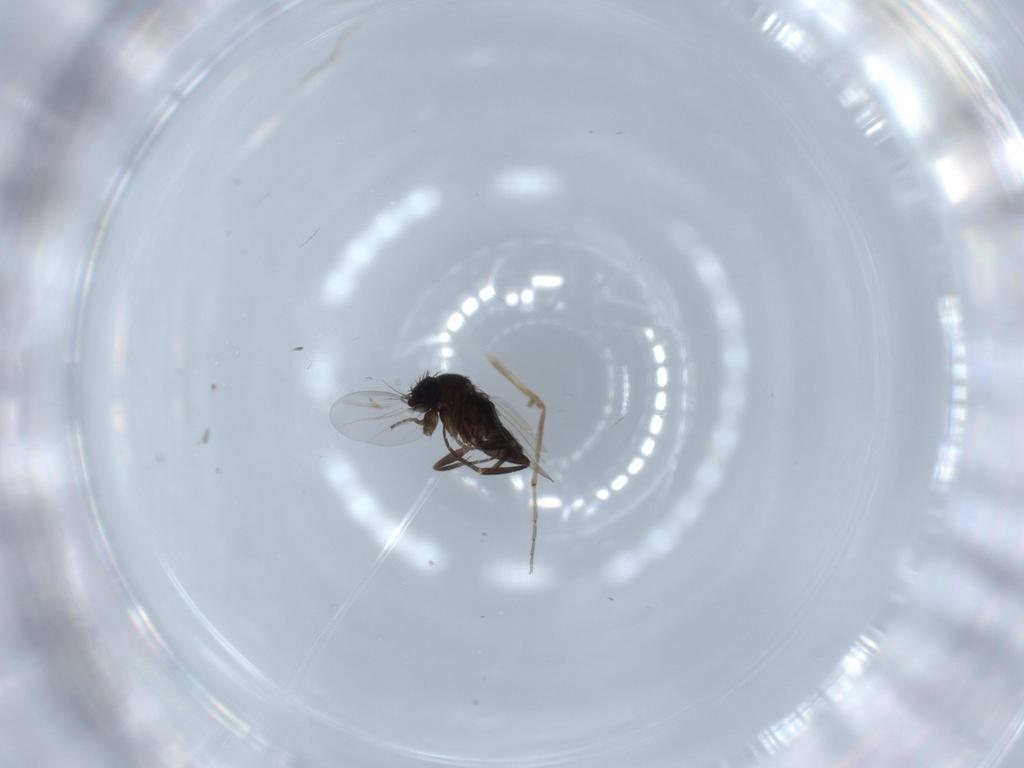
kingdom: Animalia
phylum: Arthropoda
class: Insecta
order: Diptera
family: Phoridae
